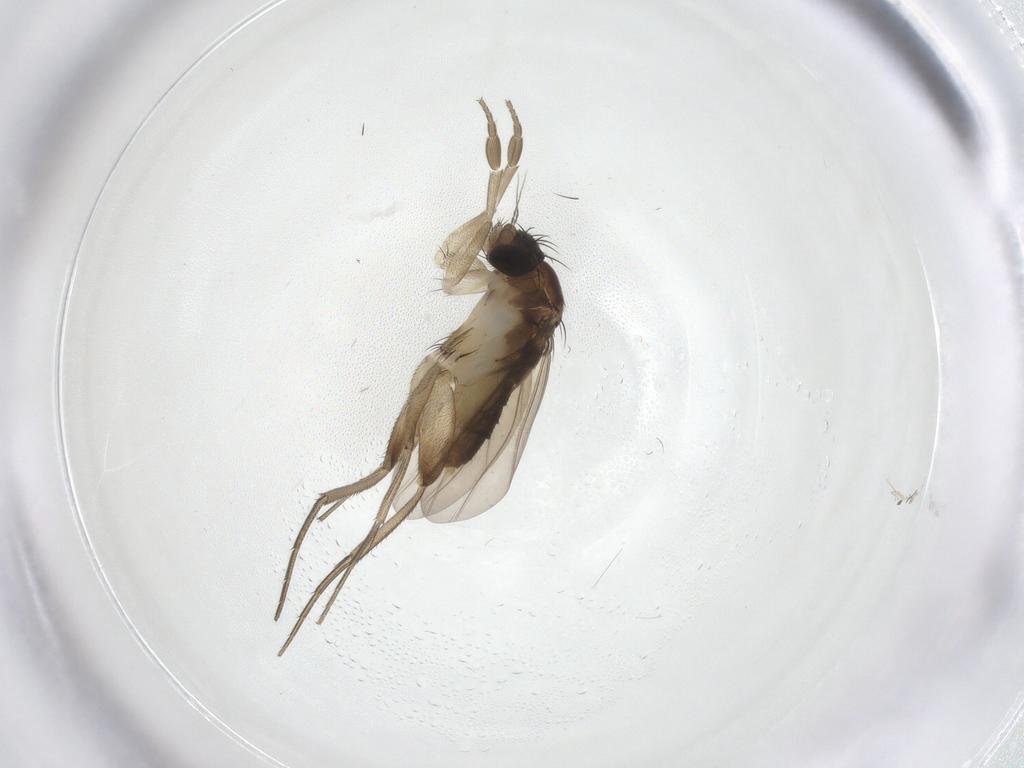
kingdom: Animalia
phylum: Arthropoda
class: Insecta
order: Diptera
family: Phoridae
